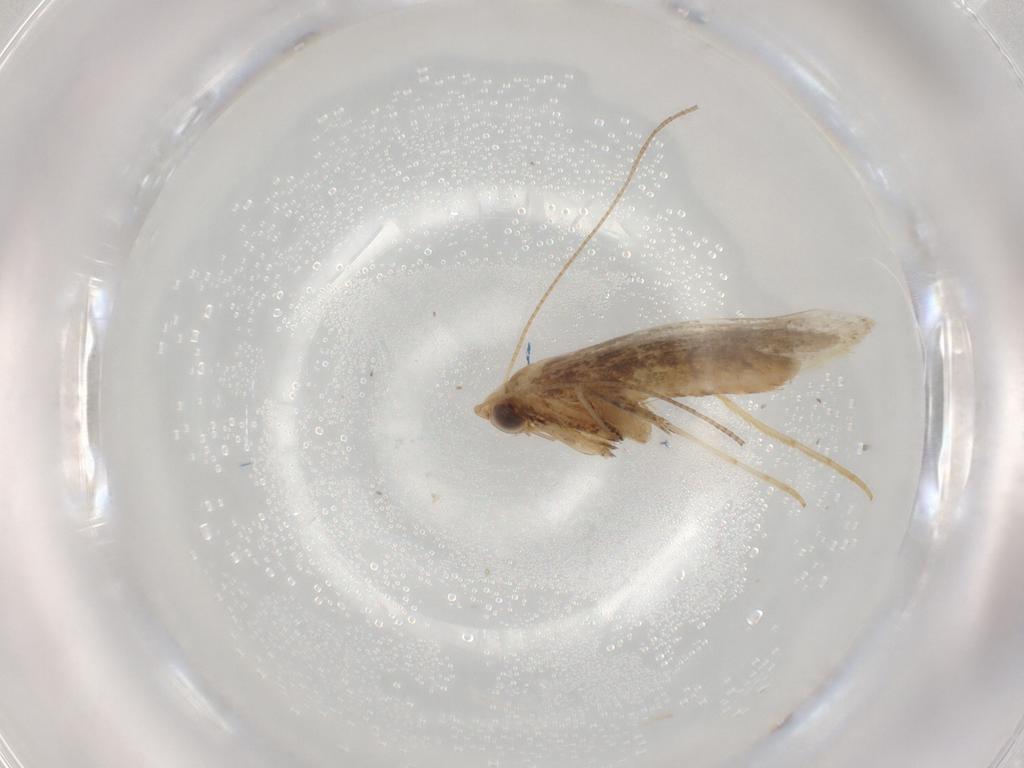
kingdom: Animalia
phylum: Arthropoda
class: Insecta
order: Lepidoptera
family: Gracillariidae
